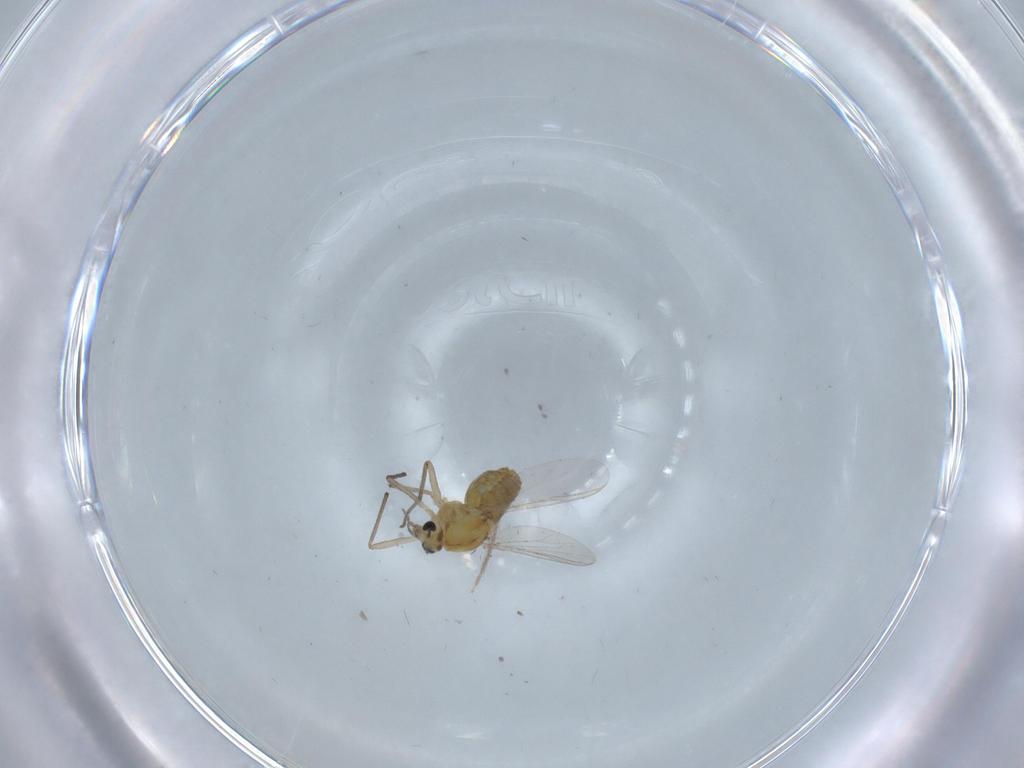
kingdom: Animalia
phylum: Arthropoda
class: Insecta
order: Diptera
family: Chironomidae
